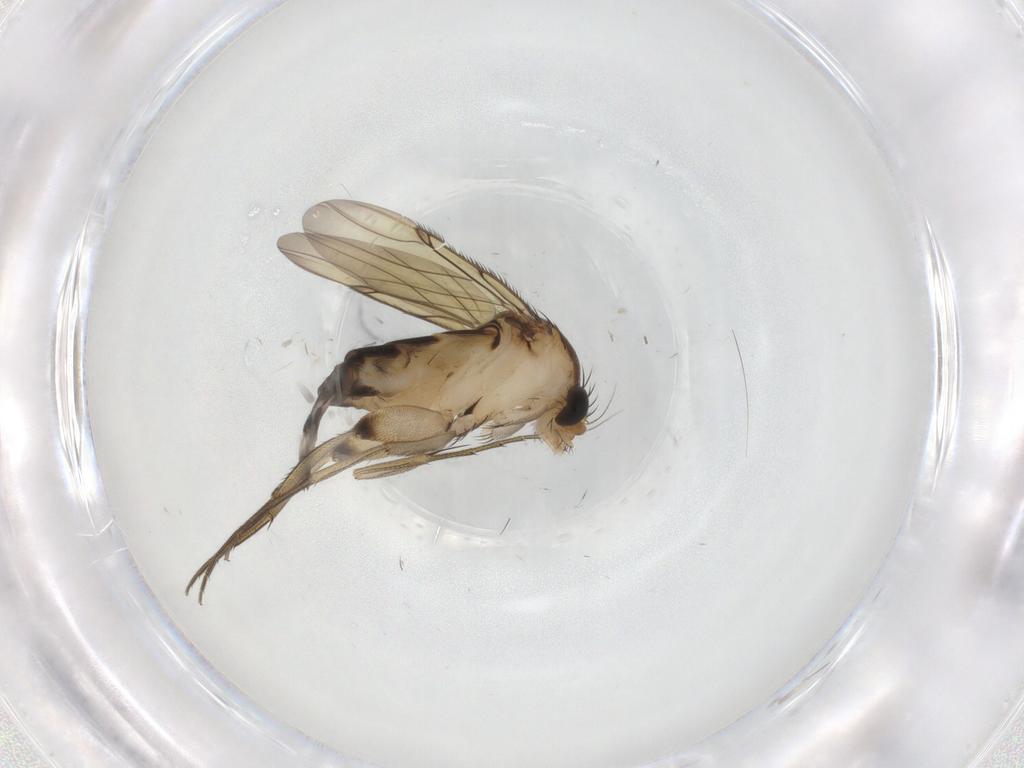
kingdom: Animalia
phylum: Arthropoda
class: Insecta
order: Diptera
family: Phoridae
